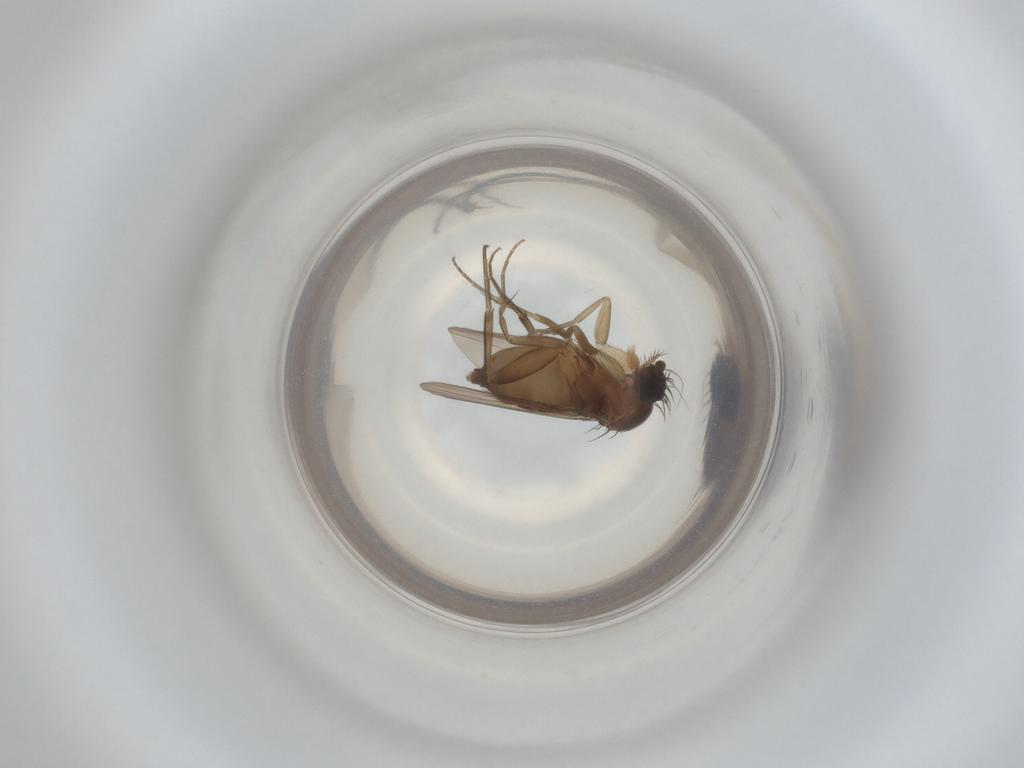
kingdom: Animalia
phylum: Arthropoda
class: Insecta
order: Diptera
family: Phoridae
